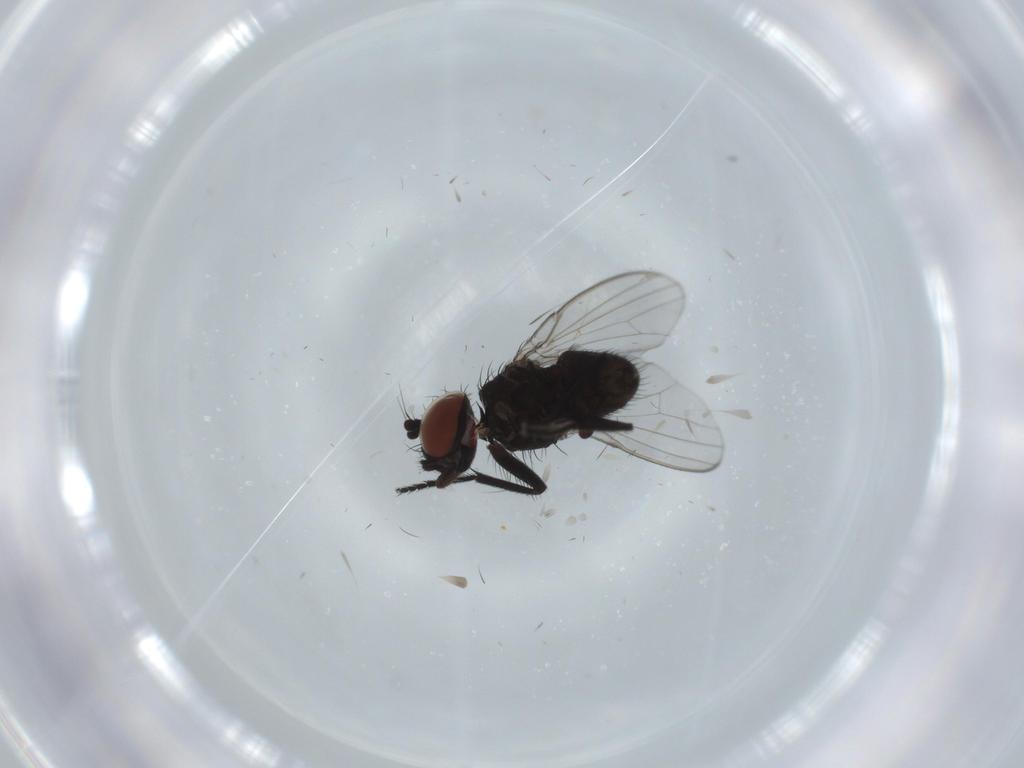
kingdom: Animalia
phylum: Arthropoda
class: Insecta
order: Diptera
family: Milichiidae
